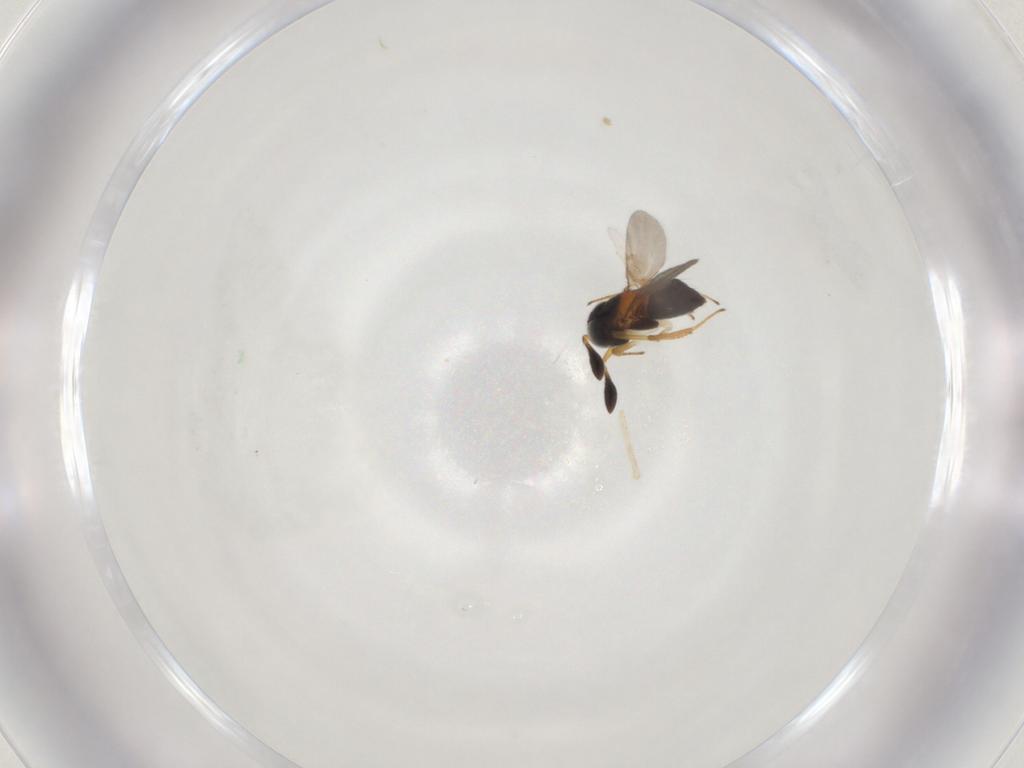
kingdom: Animalia
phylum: Arthropoda
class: Insecta
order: Hymenoptera
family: Encyrtidae
